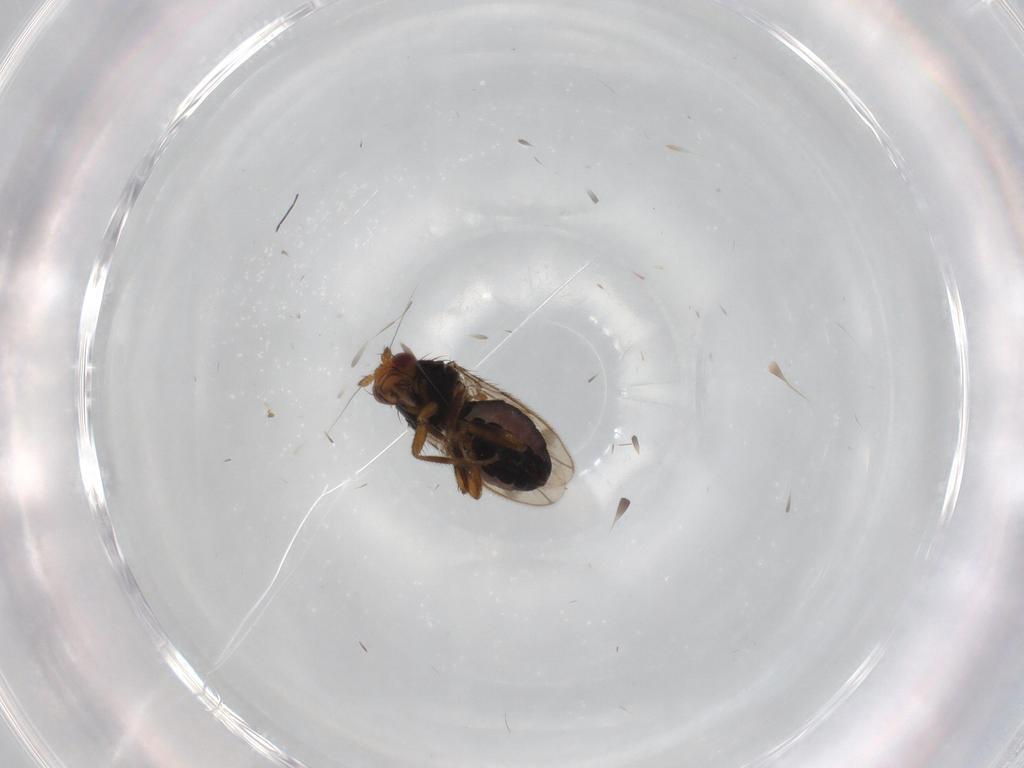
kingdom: Animalia
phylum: Arthropoda
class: Insecta
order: Diptera
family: Sphaeroceridae
